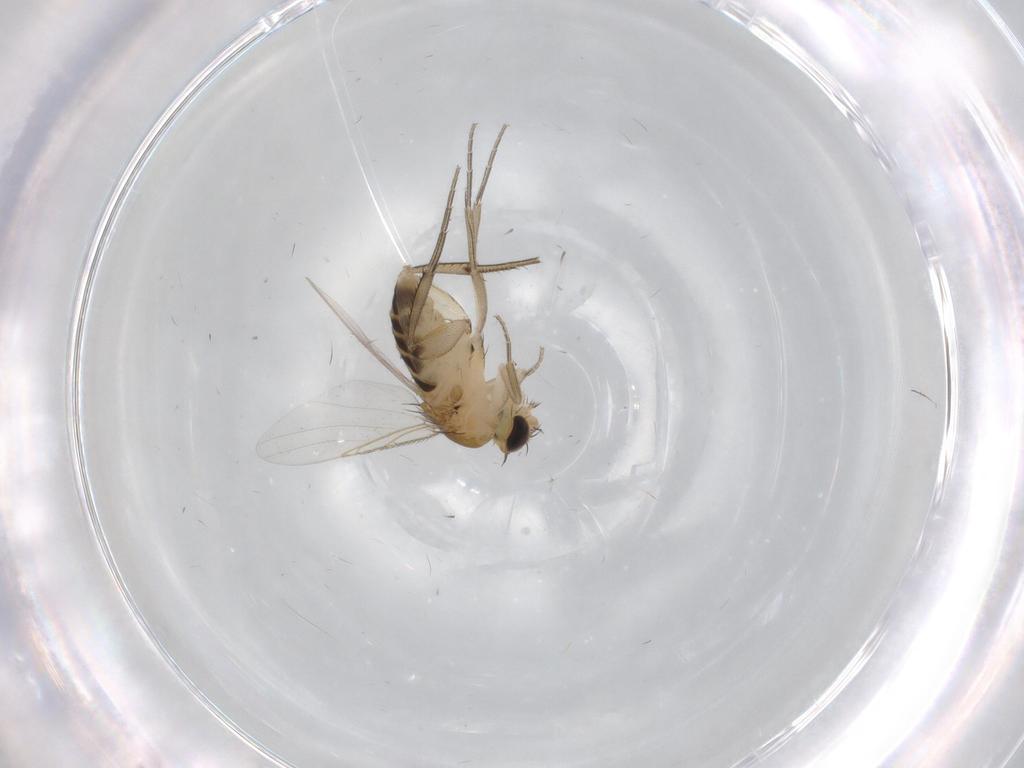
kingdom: Animalia
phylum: Arthropoda
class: Insecta
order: Diptera
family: Phoridae
